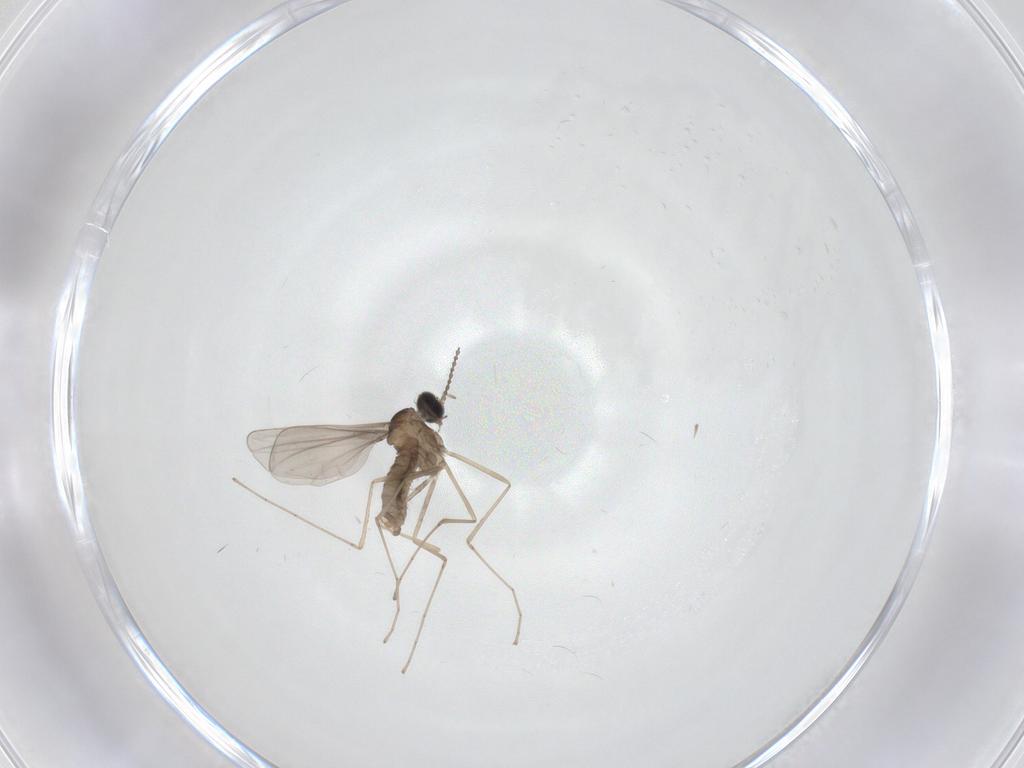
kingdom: Animalia
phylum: Arthropoda
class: Insecta
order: Diptera
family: Cecidomyiidae
